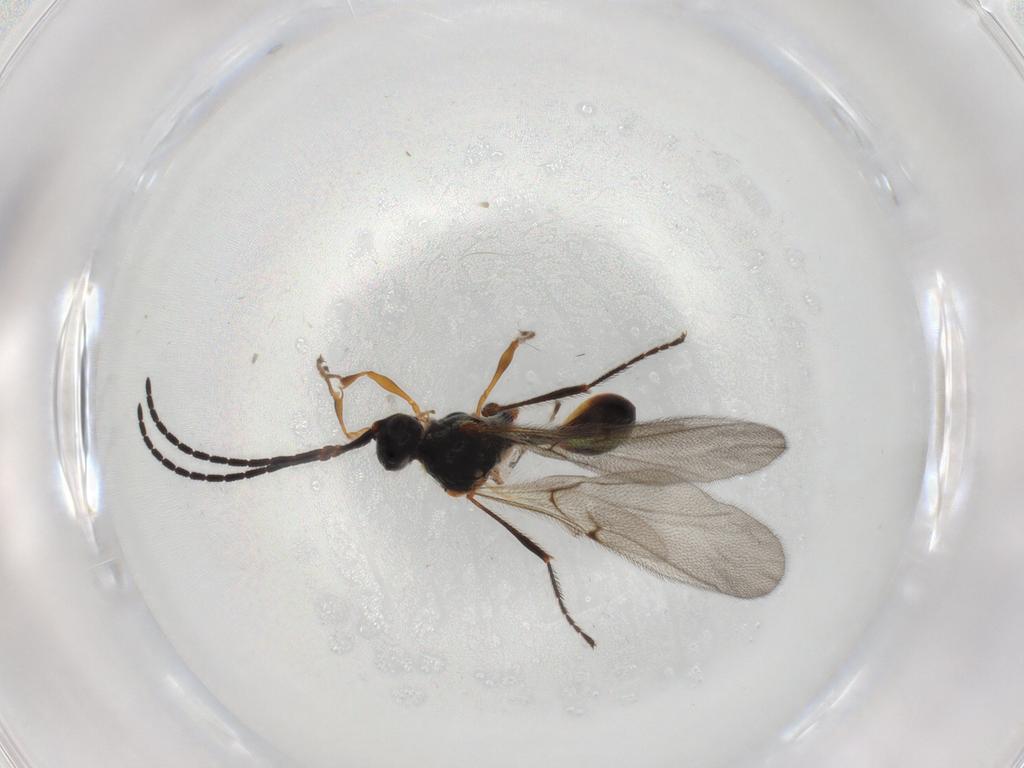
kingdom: Animalia
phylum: Arthropoda
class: Insecta
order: Hymenoptera
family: Diapriidae
